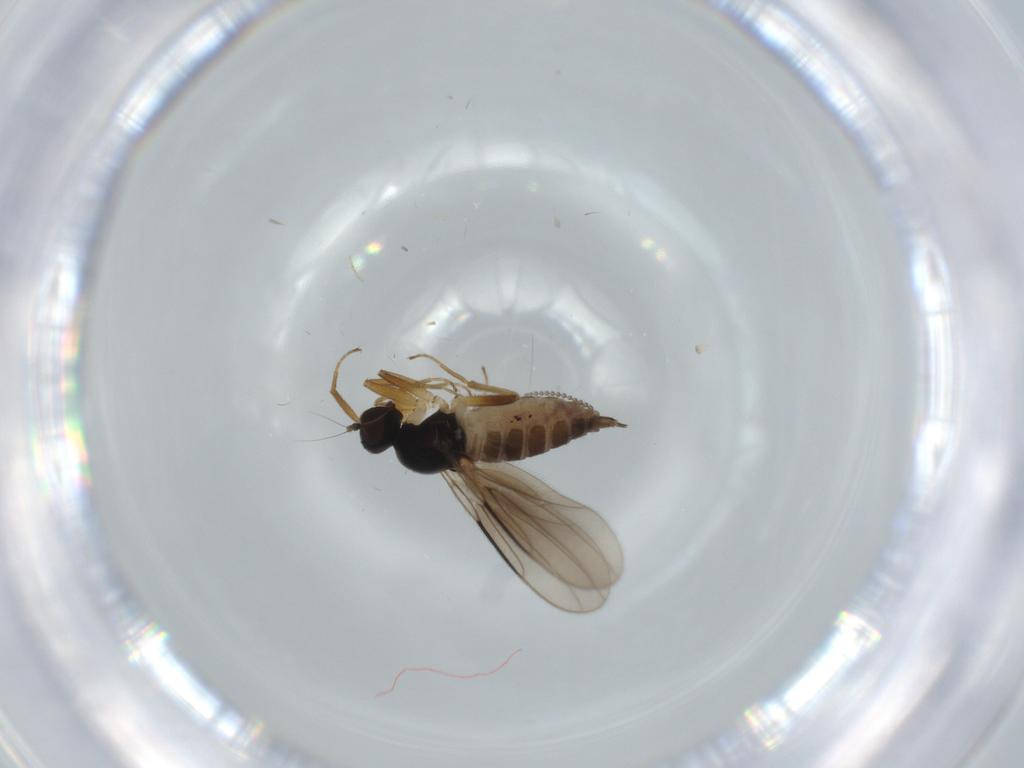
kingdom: Animalia
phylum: Arthropoda
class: Insecta
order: Diptera
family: Hybotidae
